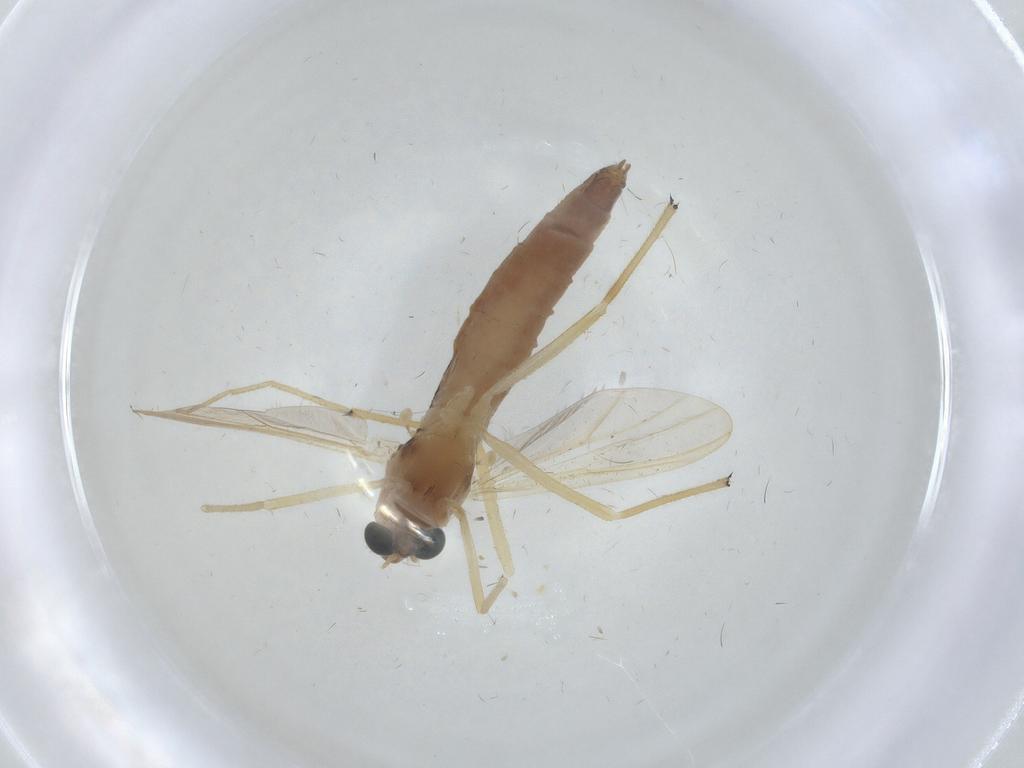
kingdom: Animalia
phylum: Arthropoda
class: Insecta
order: Diptera
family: Chironomidae
